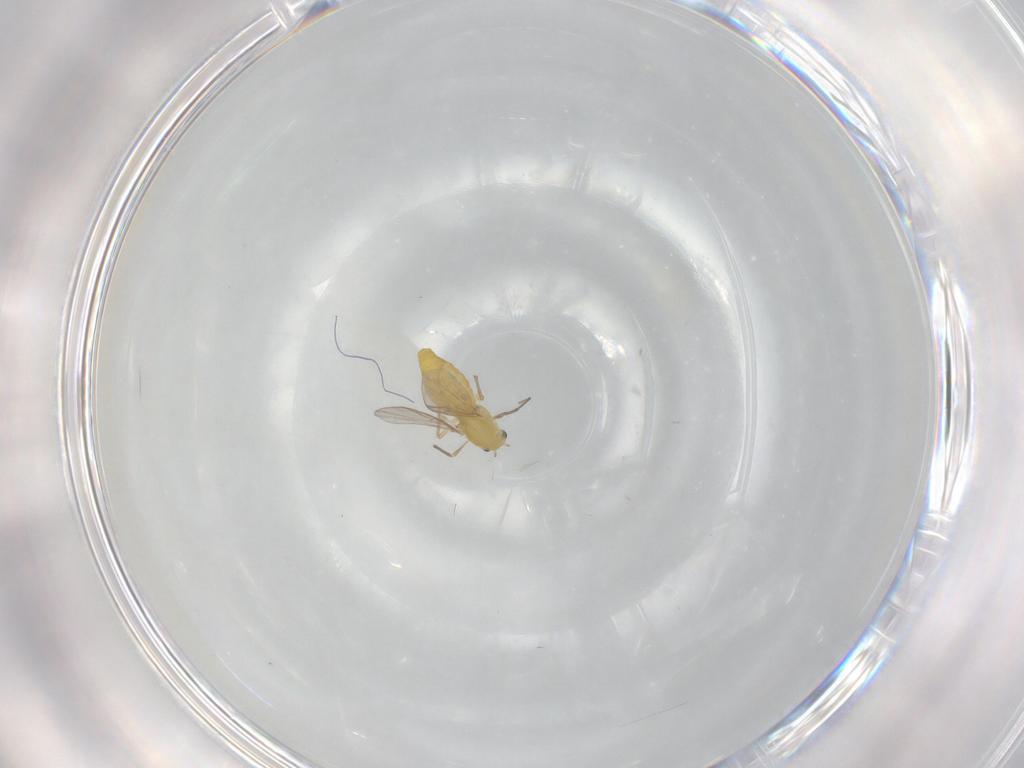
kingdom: Animalia
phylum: Arthropoda
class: Insecta
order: Diptera
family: Chironomidae
